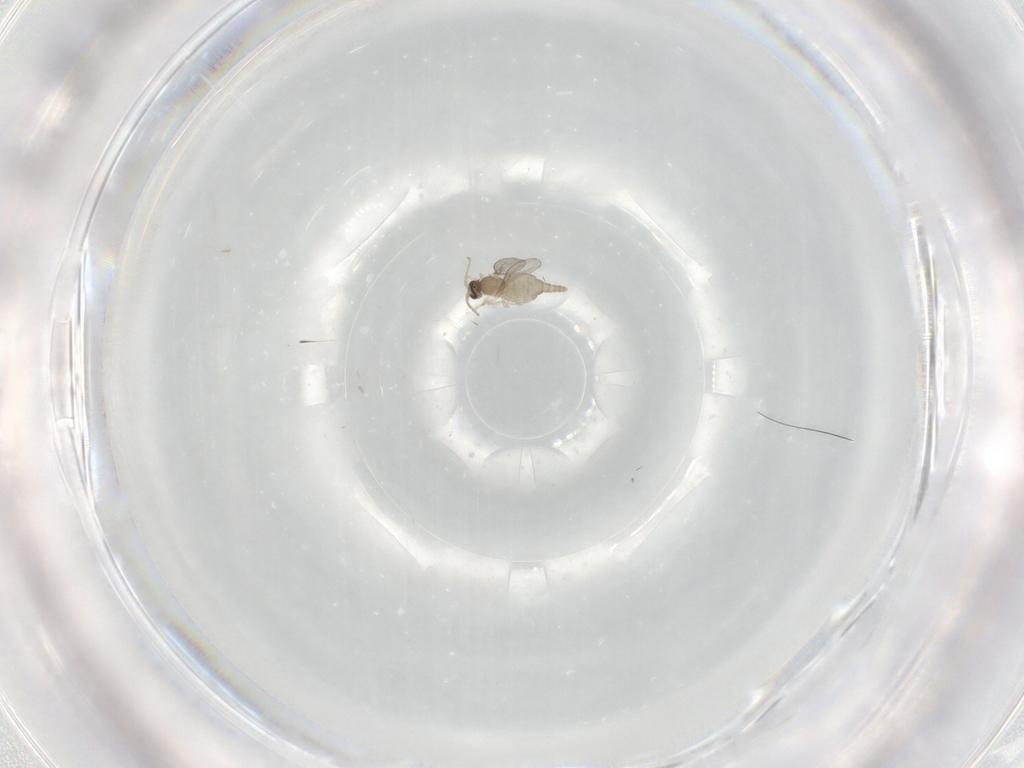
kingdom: Animalia
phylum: Arthropoda
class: Insecta
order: Diptera
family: Cecidomyiidae
